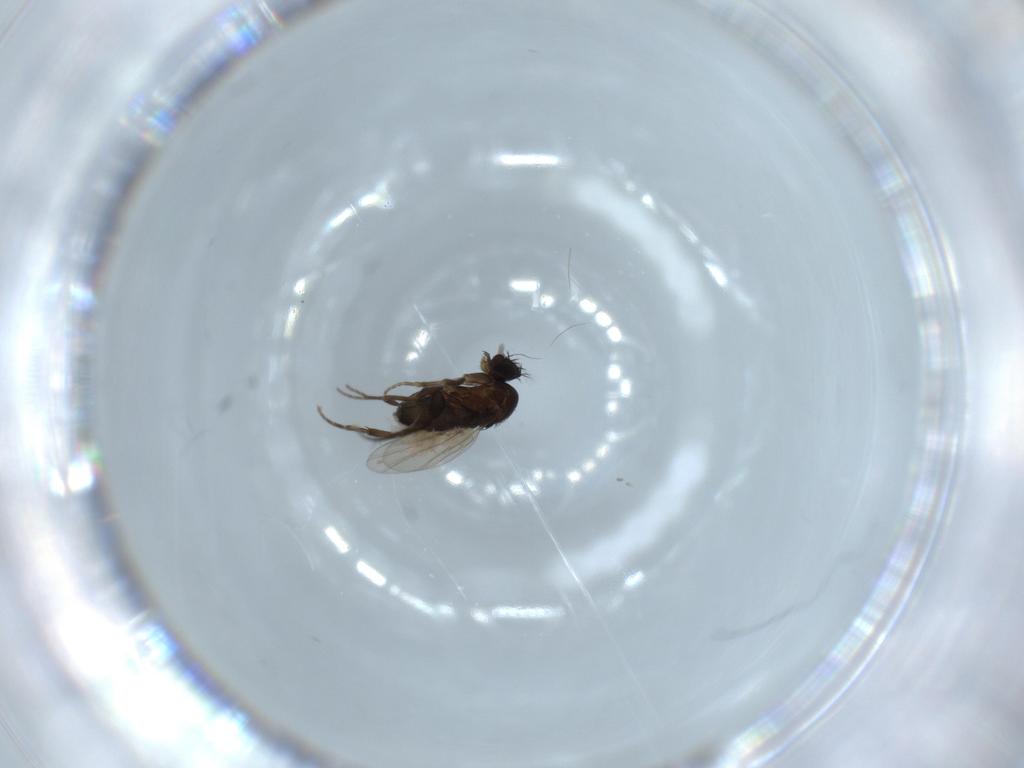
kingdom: Animalia
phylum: Arthropoda
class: Insecta
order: Diptera
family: Phoridae
